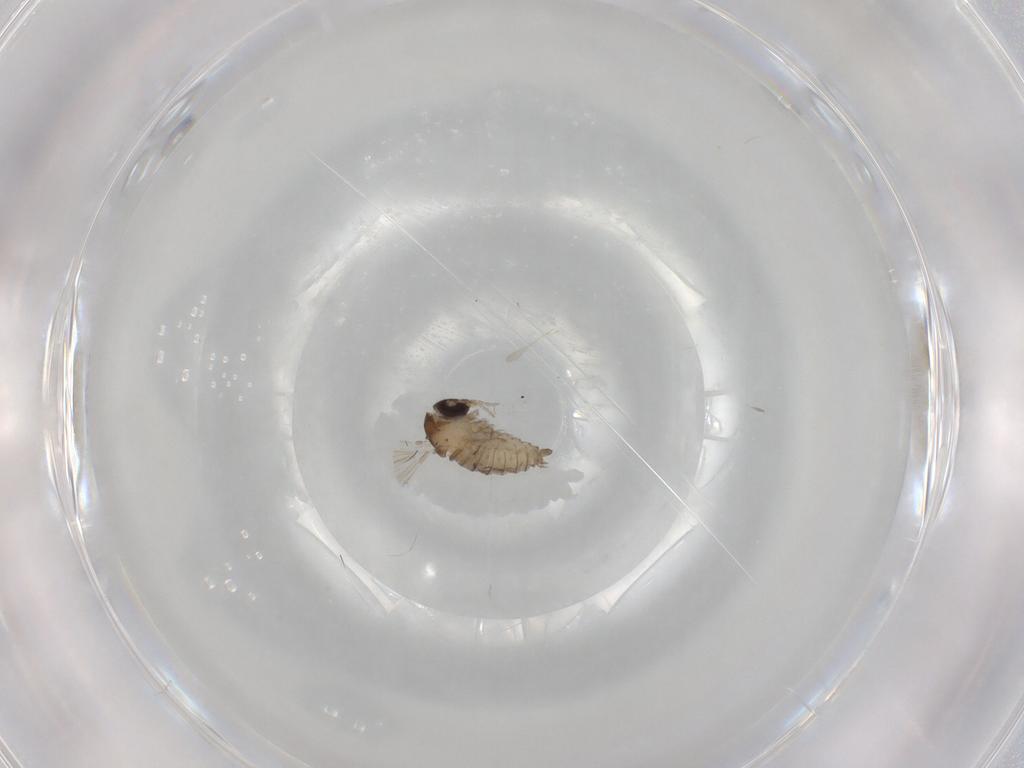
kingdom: Animalia
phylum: Arthropoda
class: Insecta
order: Diptera
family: Psychodidae
